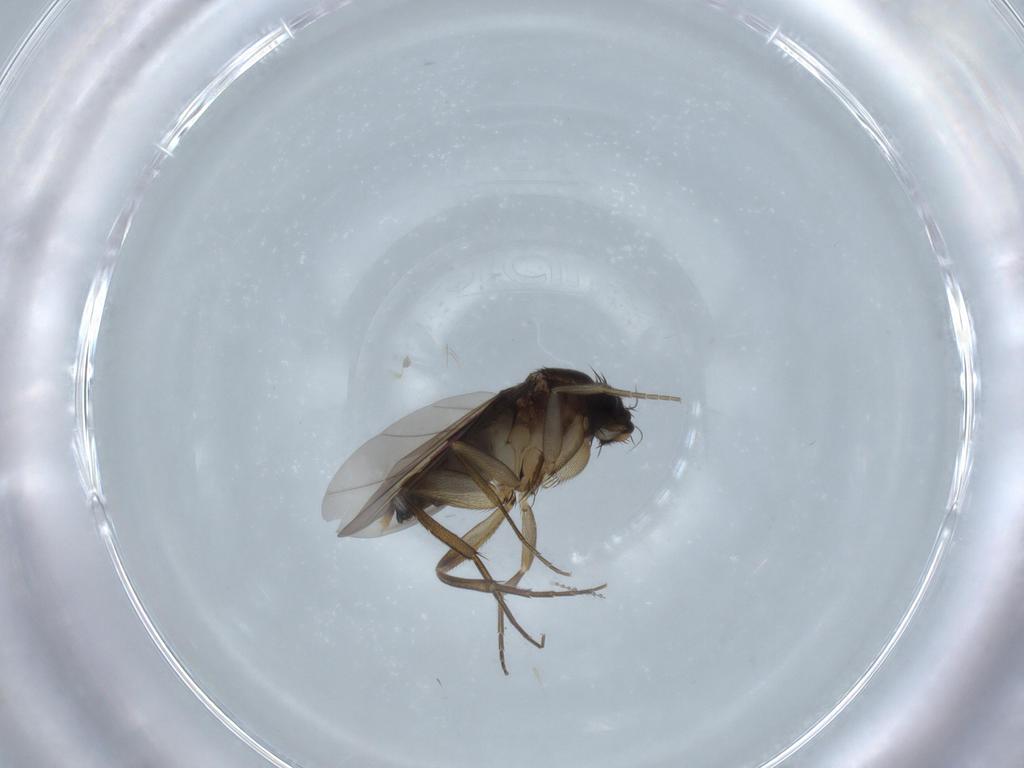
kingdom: Animalia
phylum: Arthropoda
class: Insecta
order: Diptera
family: Phoridae
